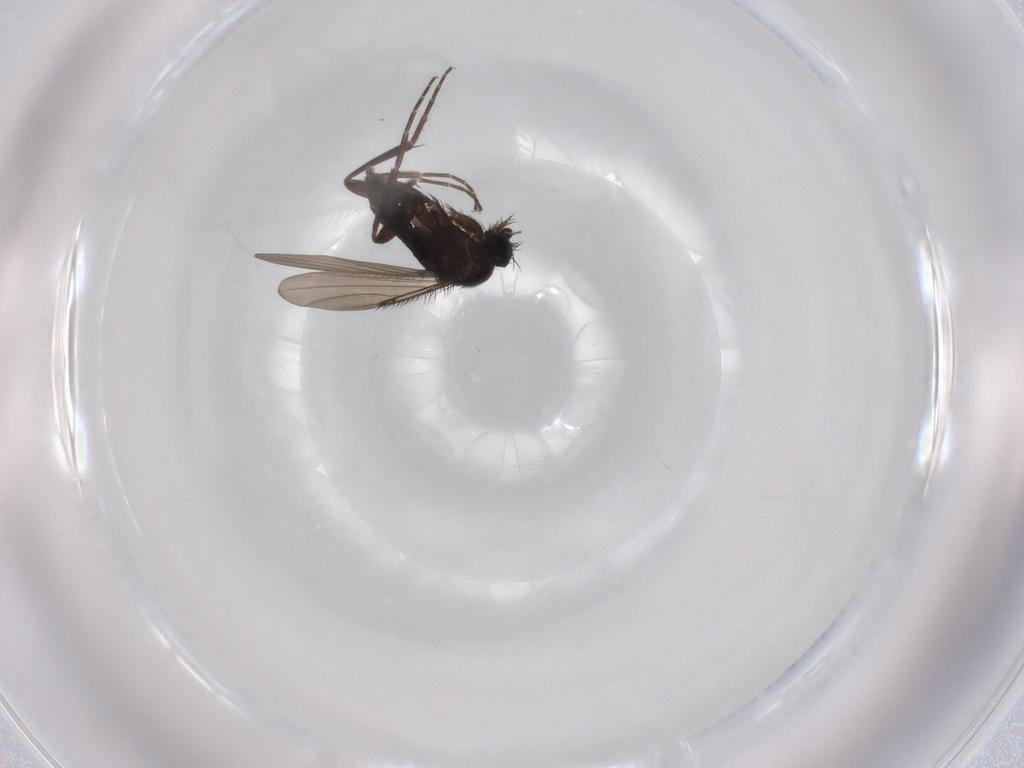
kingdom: Animalia
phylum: Arthropoda
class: Insecta
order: Diptera
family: Phoridae
